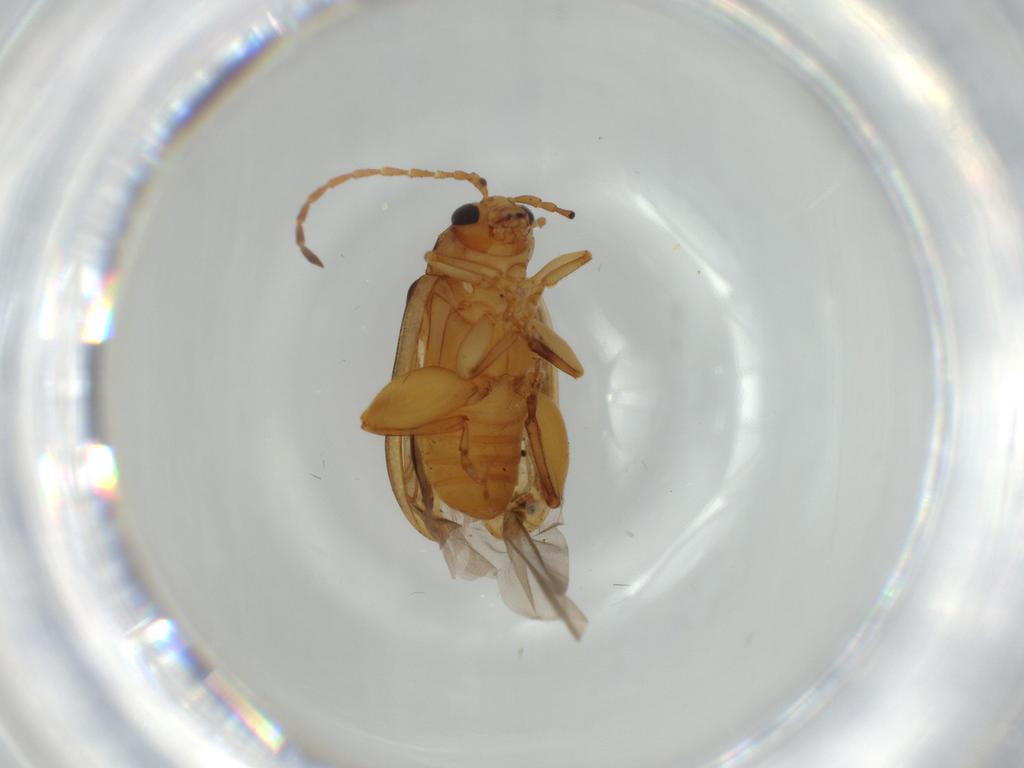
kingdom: Animalia
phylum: Arthropoda
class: Insecta
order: Coleoptera
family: Chrysomelidae
